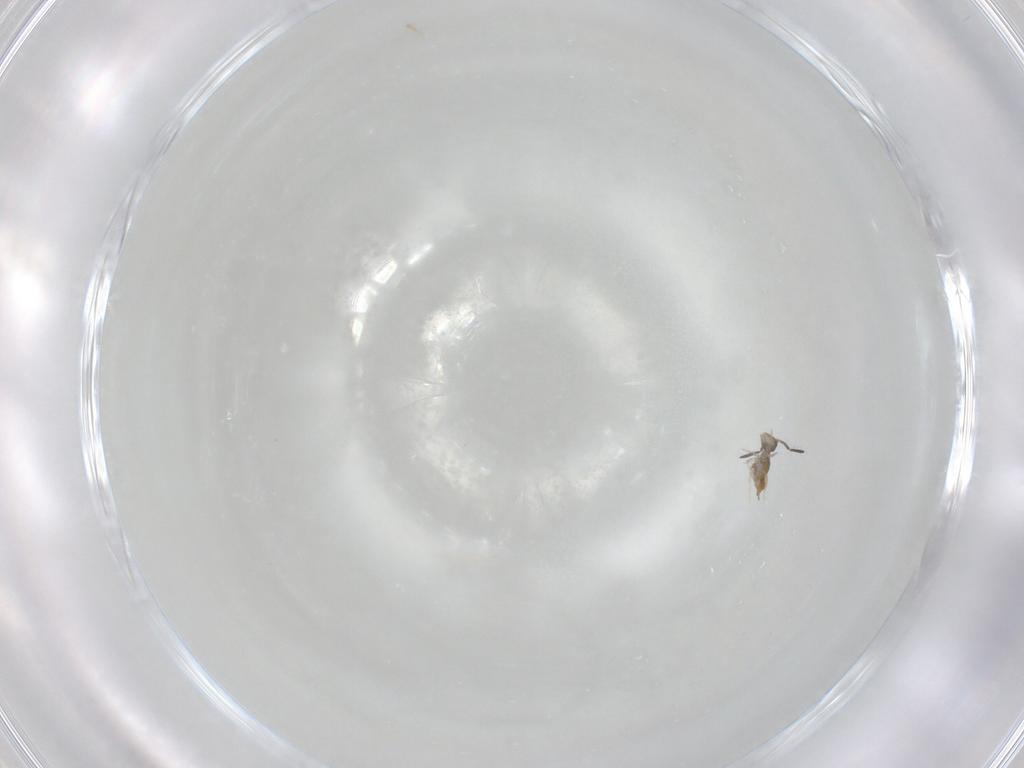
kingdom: Animalia
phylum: Arthropoda
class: Collembola
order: Symphypleona
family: Katiannidae
